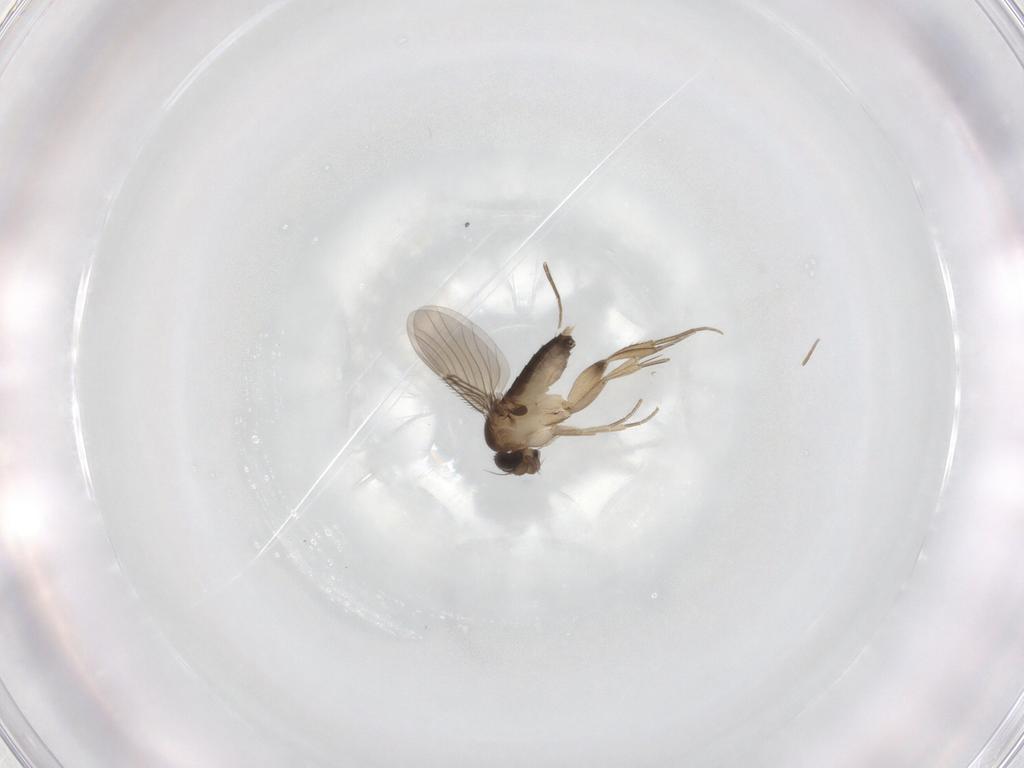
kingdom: Animalia
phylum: Arthropoda
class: Insecta
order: Diptera
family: Phoridae
